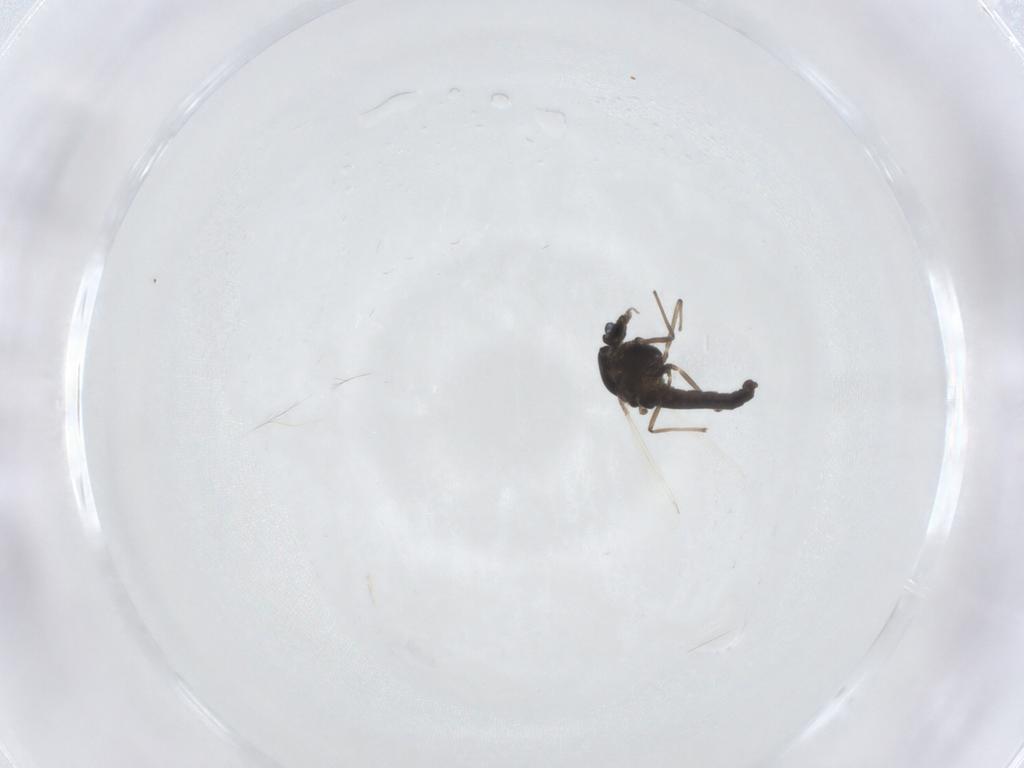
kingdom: Animalia
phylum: Arthropoda
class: Insecta
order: Diptera
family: Chironomidae
